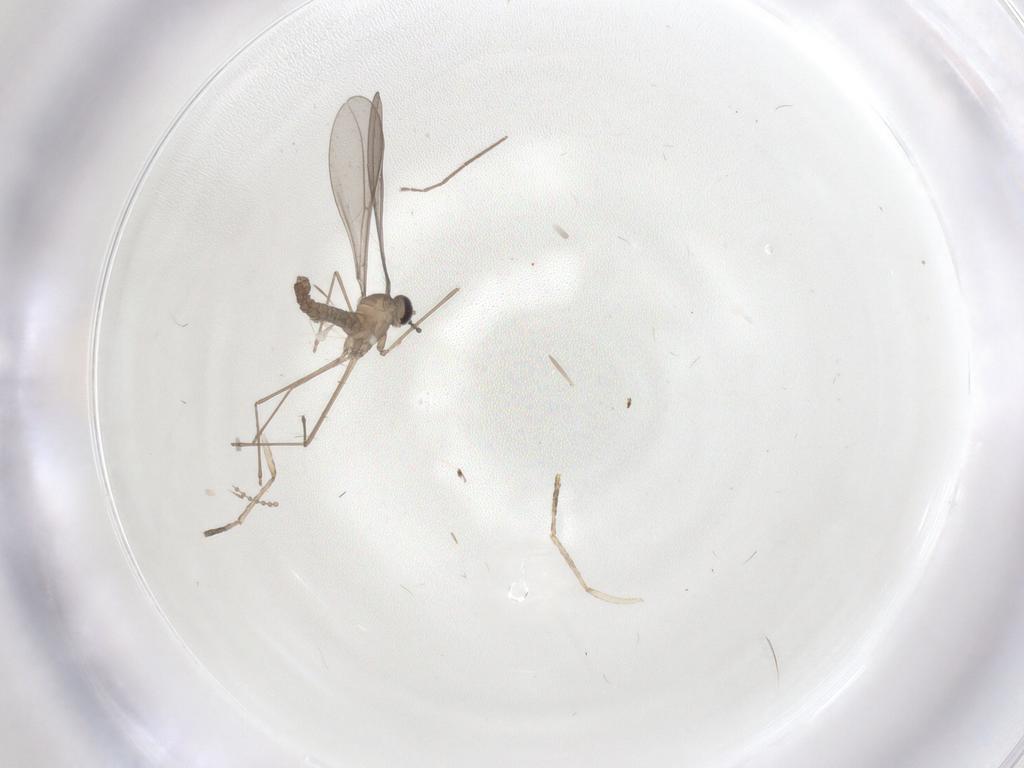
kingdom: Animalia
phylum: Arthropoda
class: Insecta
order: Diptera
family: Cecidomyiidae
